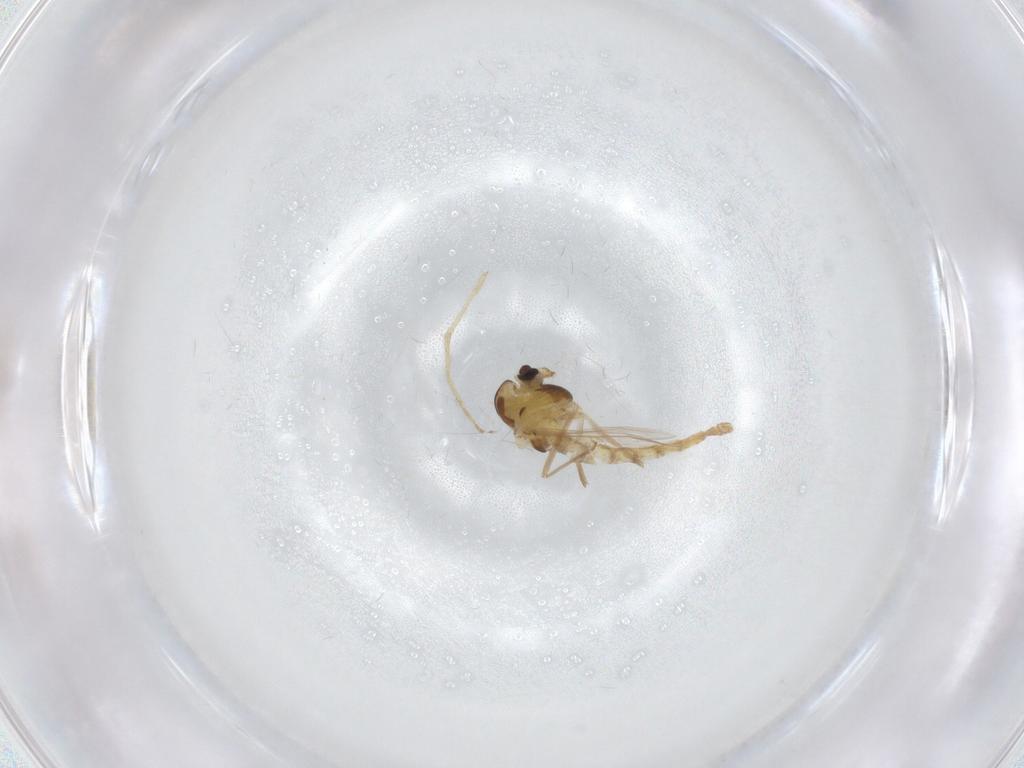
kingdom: Animalia
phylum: Arthropoda
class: Insecta
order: Diptera
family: Chironomidae
